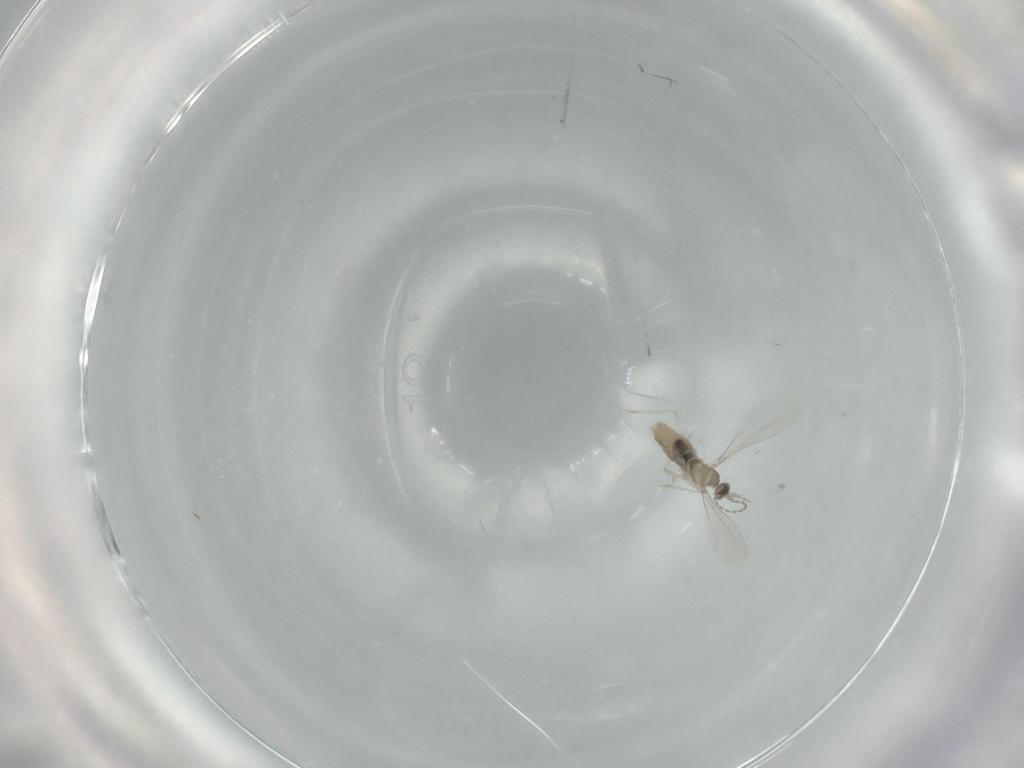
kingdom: Animalia
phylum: Arthropoda
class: Insecta
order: Diptera
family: Cecidomyiidae
